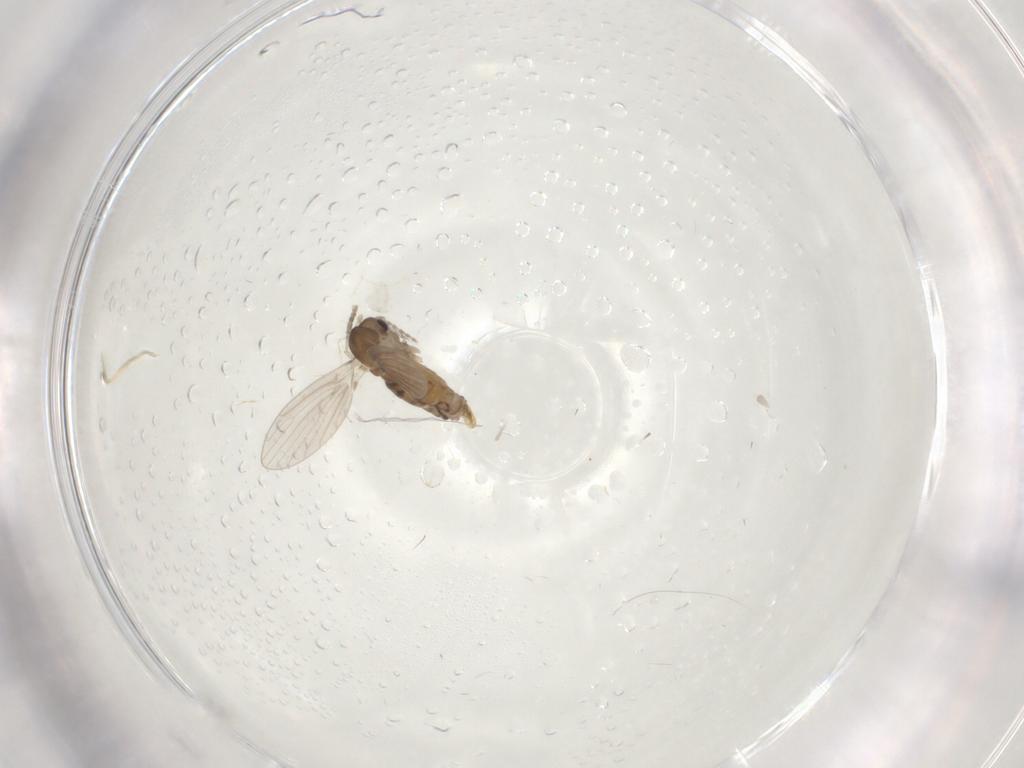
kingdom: Animalia
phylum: Arthropoda
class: Insecta
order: Diptera
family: Psychodidae
